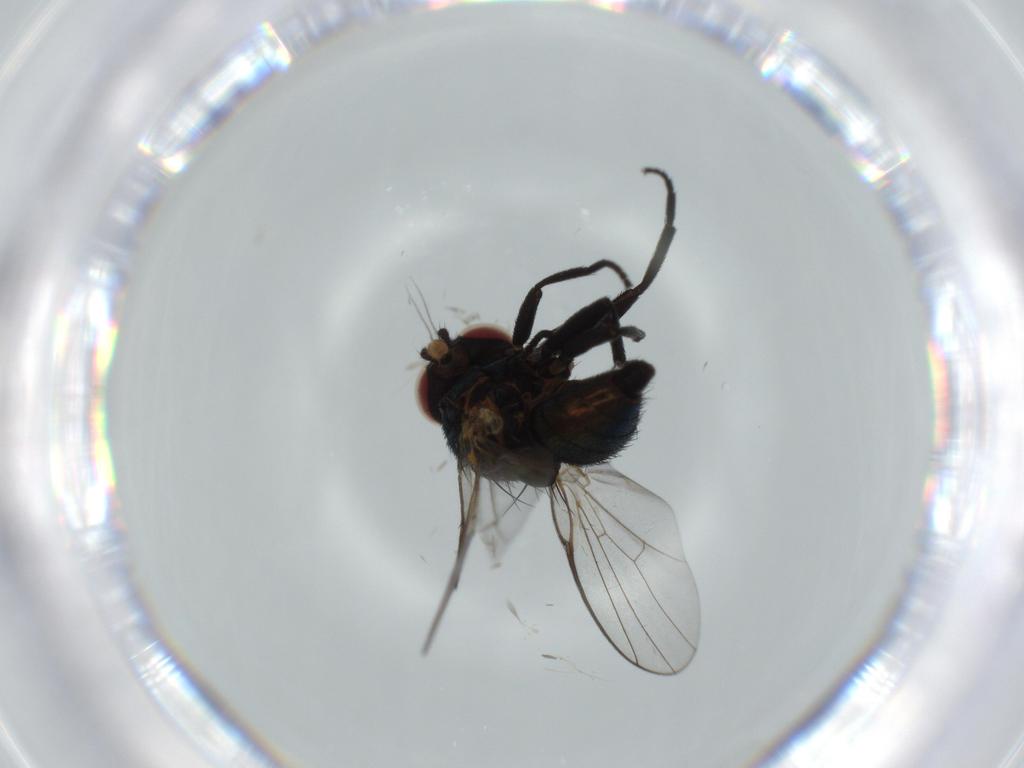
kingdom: Animalia
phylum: Arthropoda
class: Insecta
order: Diptera
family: Agromyzidae
